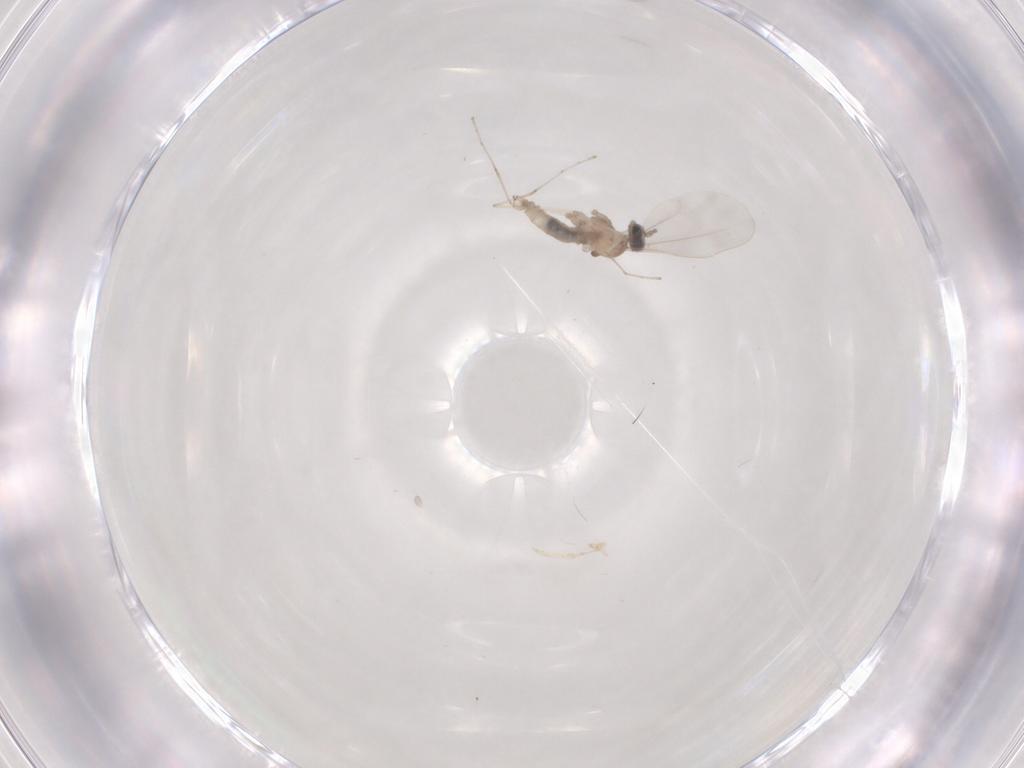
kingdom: Animalia
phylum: Arthropoda
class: Insecta
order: Diptera
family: Cecidomyiidae
